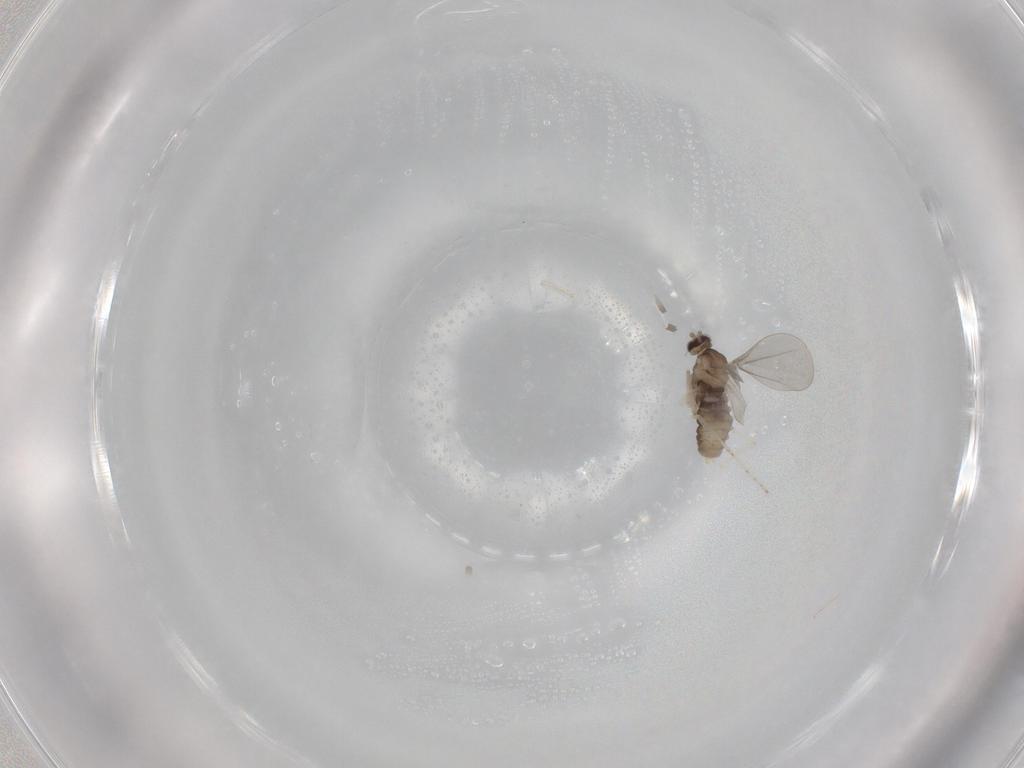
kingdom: Animalia
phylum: Arthropoda
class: Insecta
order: Diptera
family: Cecidomyiidae
